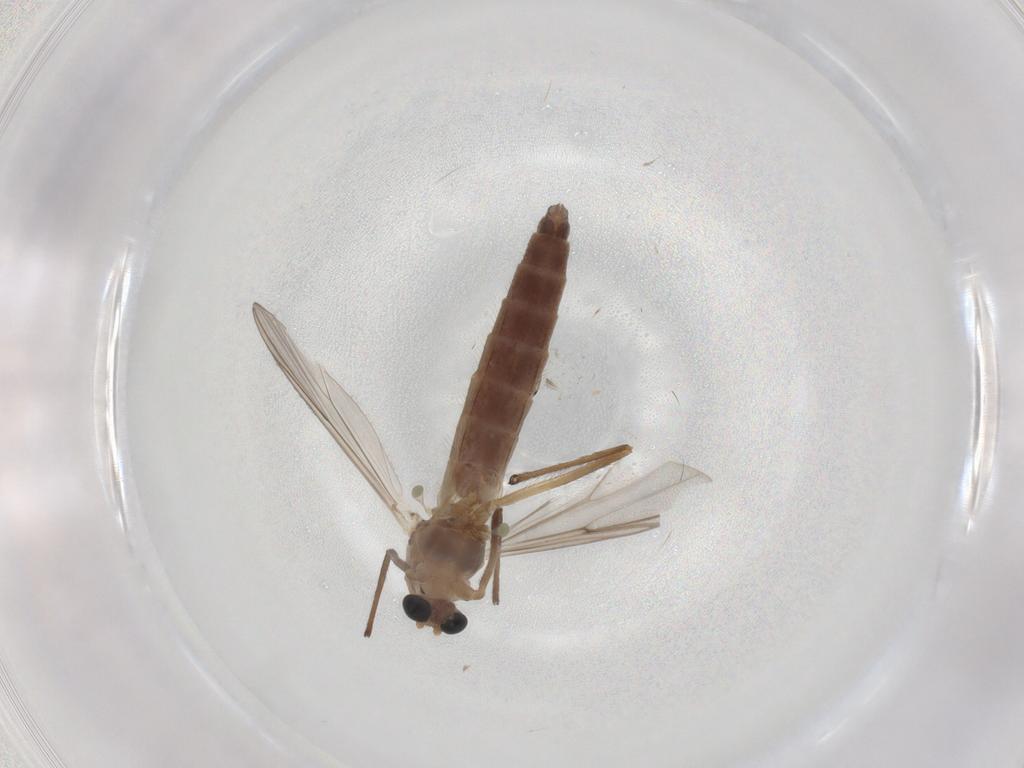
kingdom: Animalia
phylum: Arthropoda
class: Insecta
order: Diptera
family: Chironomidae
